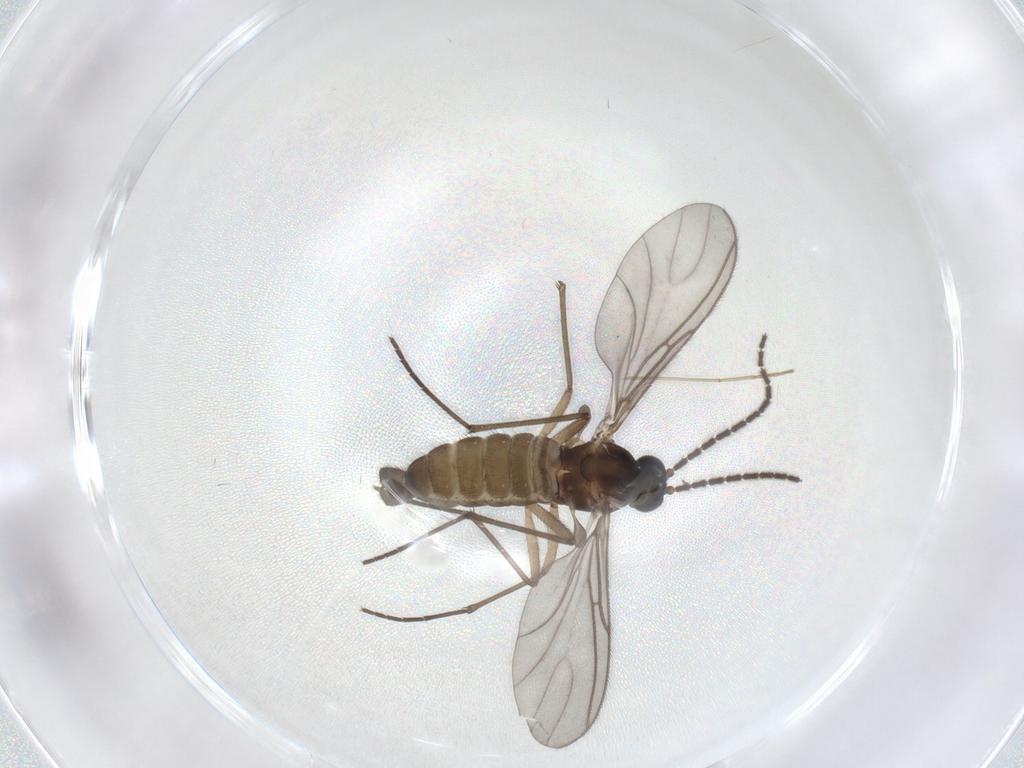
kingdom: Animalia
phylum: Arthropoda
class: Insecta
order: Diptera
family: Sciaridae
